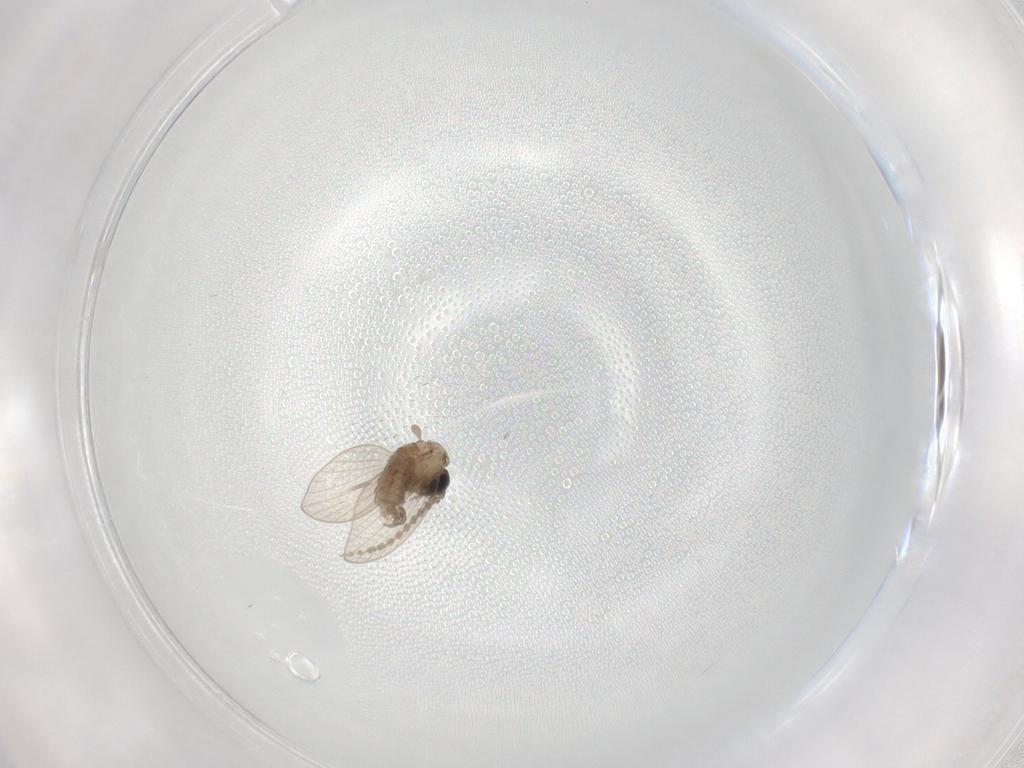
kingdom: Animalia
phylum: Arthropoda
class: Insecta
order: Diptera
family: Psychodidae
